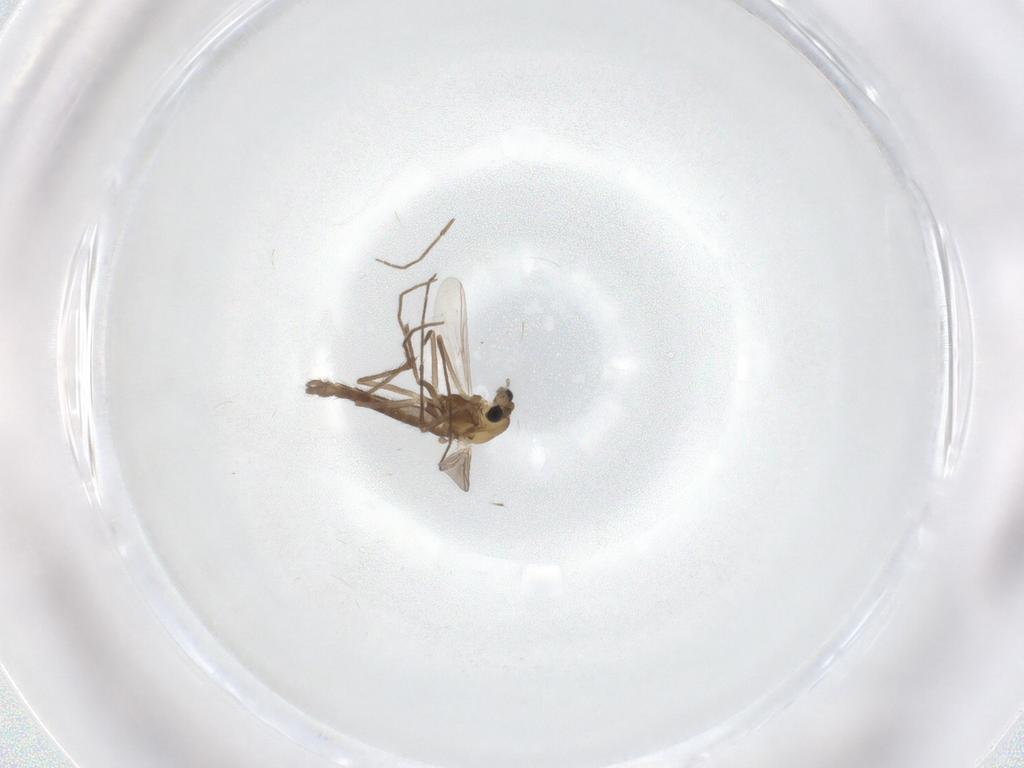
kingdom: Animalia
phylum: Arthropoda
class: Insecta
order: Diptera
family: Chironomidae
